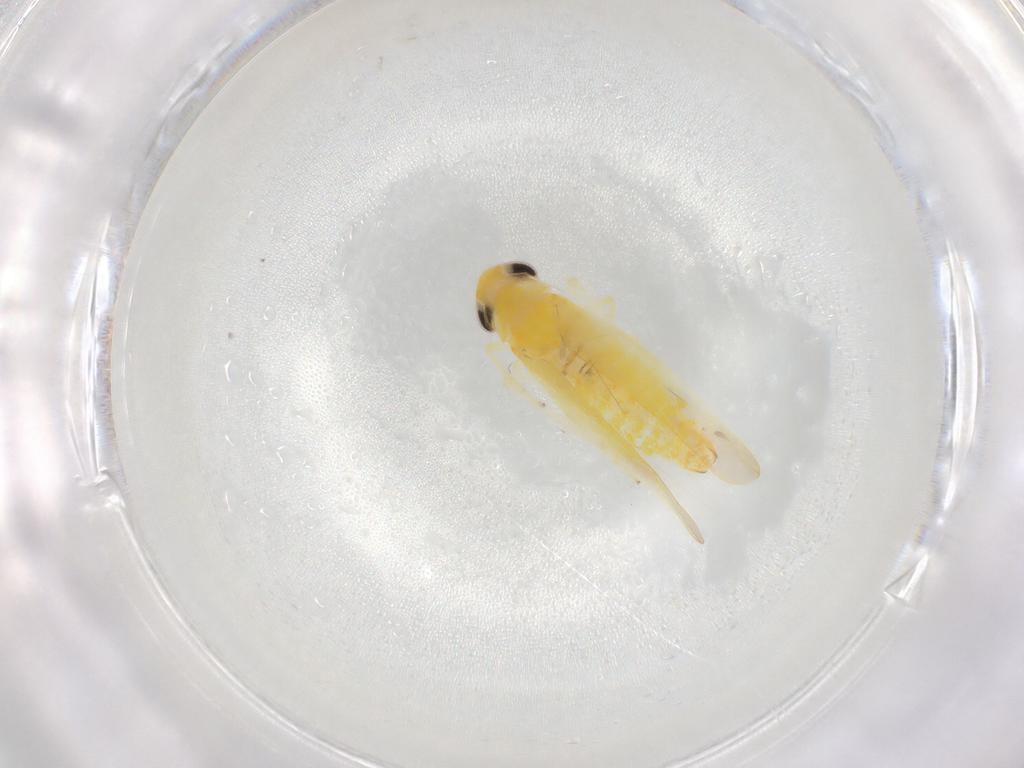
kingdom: Animalia
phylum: Arthropoda
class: Insecta
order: Hemiptera
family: Cicadellidae
